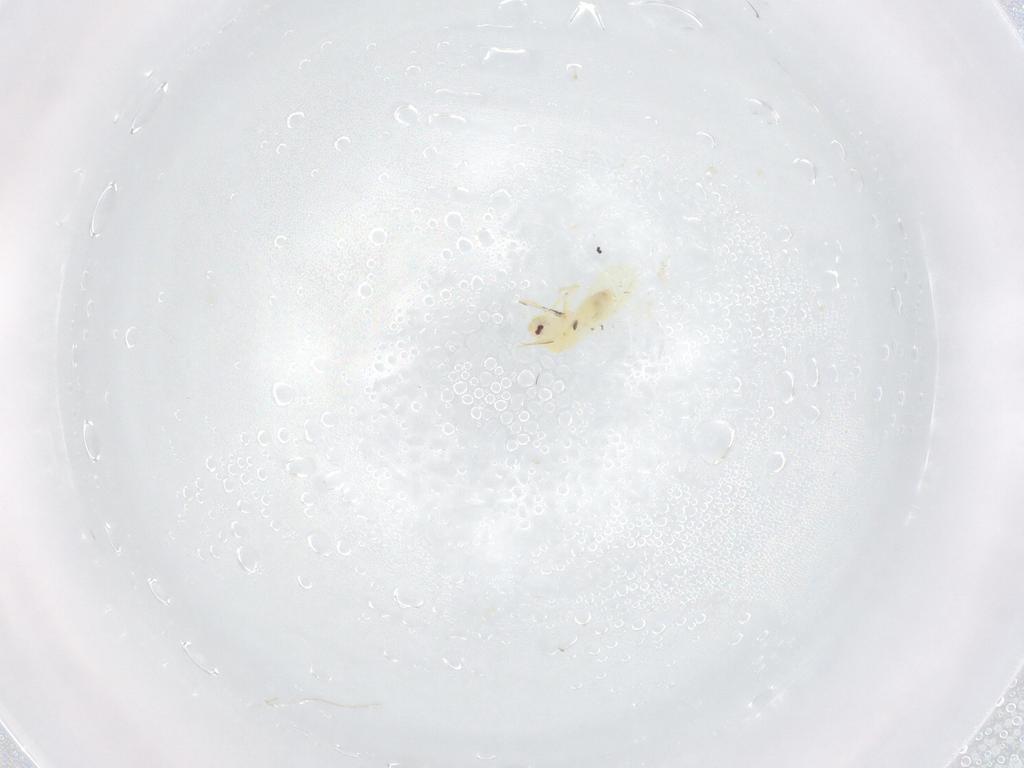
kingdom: Animalia
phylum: Arthropoda
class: Insecta
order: Hemiptera
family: Aleyrodidae
